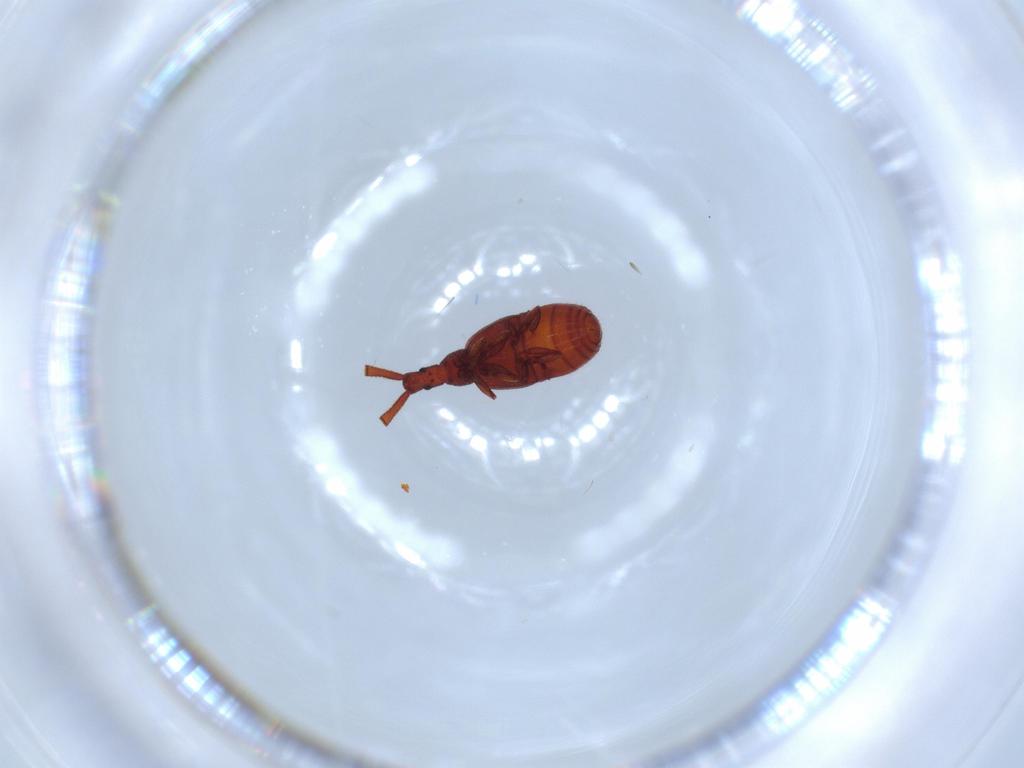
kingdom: Animalia
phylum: Arthropoda
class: Insecta
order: Coleoptera
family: Staphylinidae
